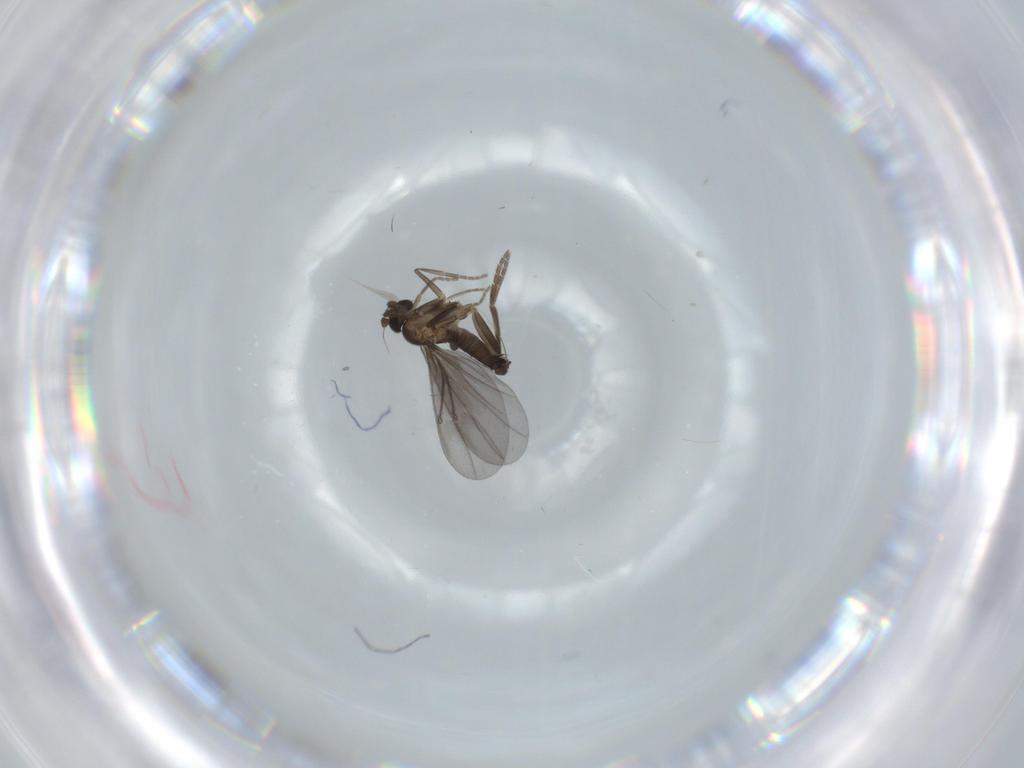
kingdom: Animalia
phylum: Arthropoda
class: Insecta
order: Diptera
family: Phoridae
